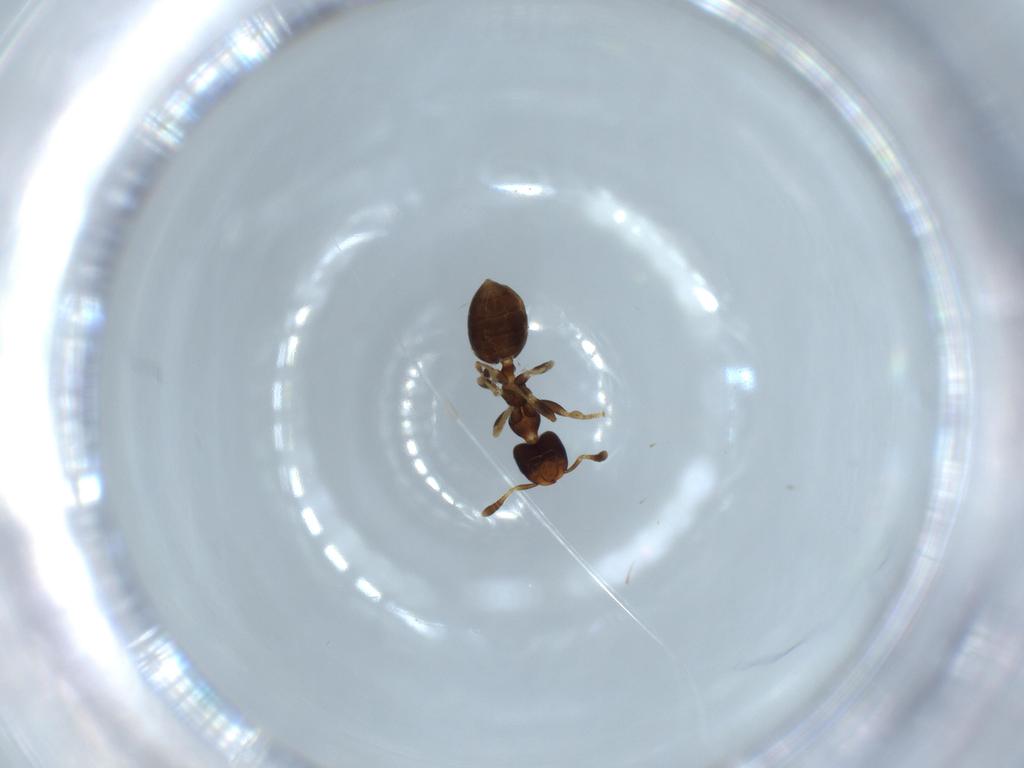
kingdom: Animalia
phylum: Arthropoda
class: Insecta
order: Hymenoptera
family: Formicidae
